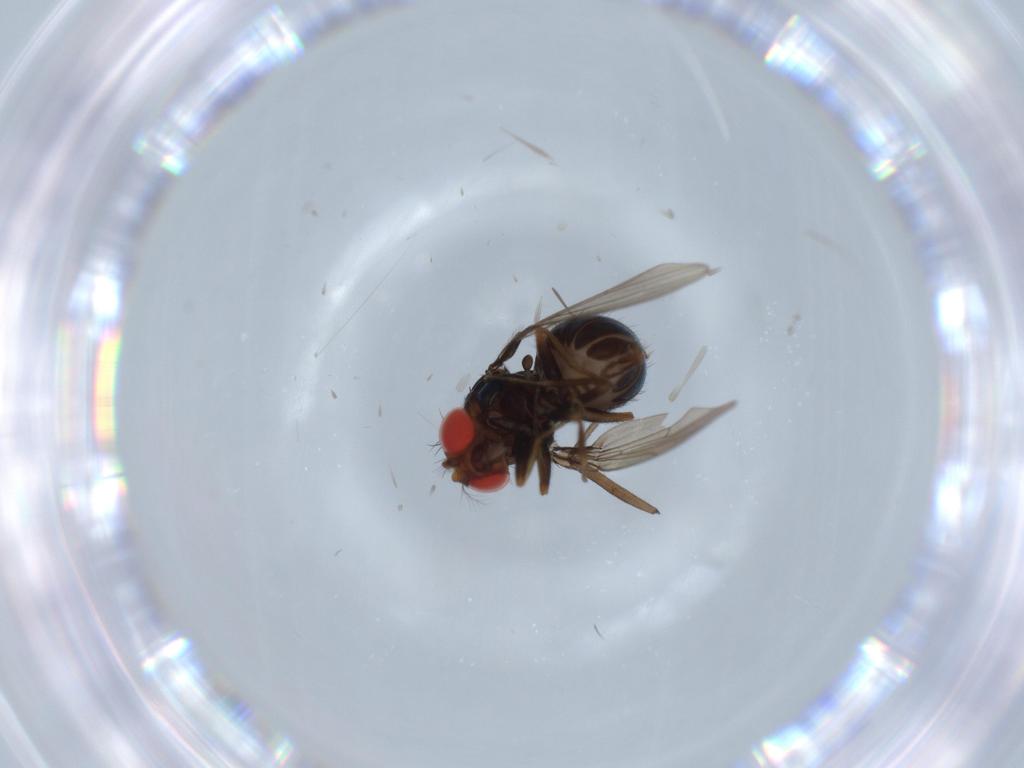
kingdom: Animalia
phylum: Arthropoda
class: Insecta
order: Diptera
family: Drosophilidae
